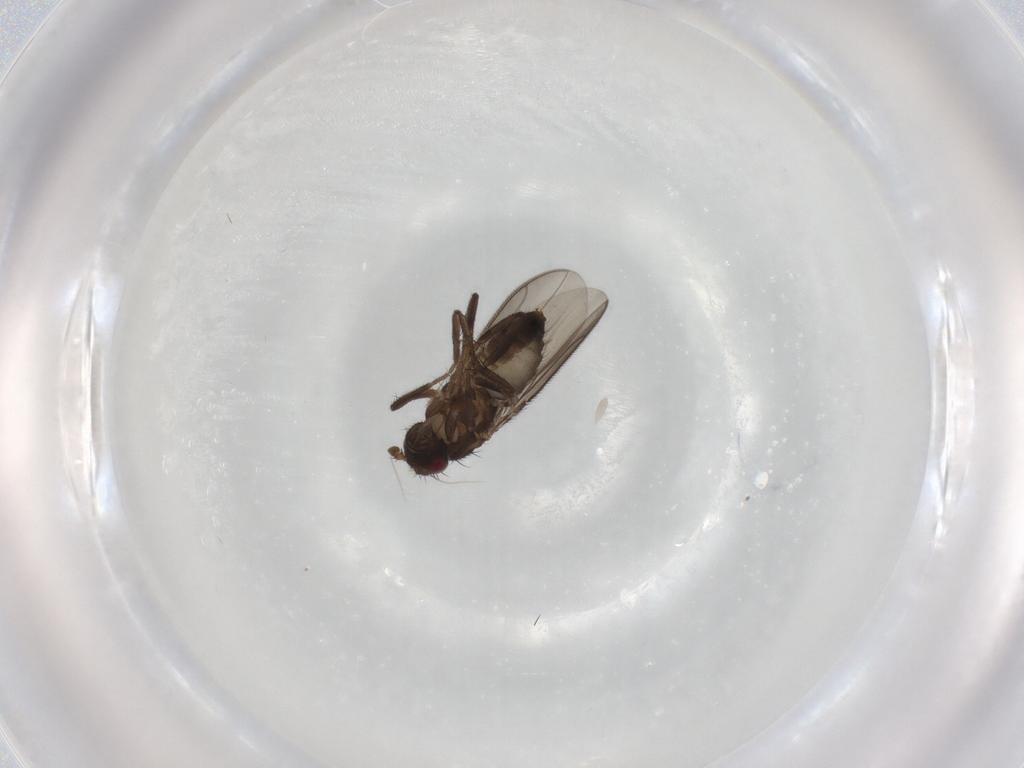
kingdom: Animalia
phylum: Arthropoda
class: Insecta
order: Diptera
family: Sphaeroceridae
